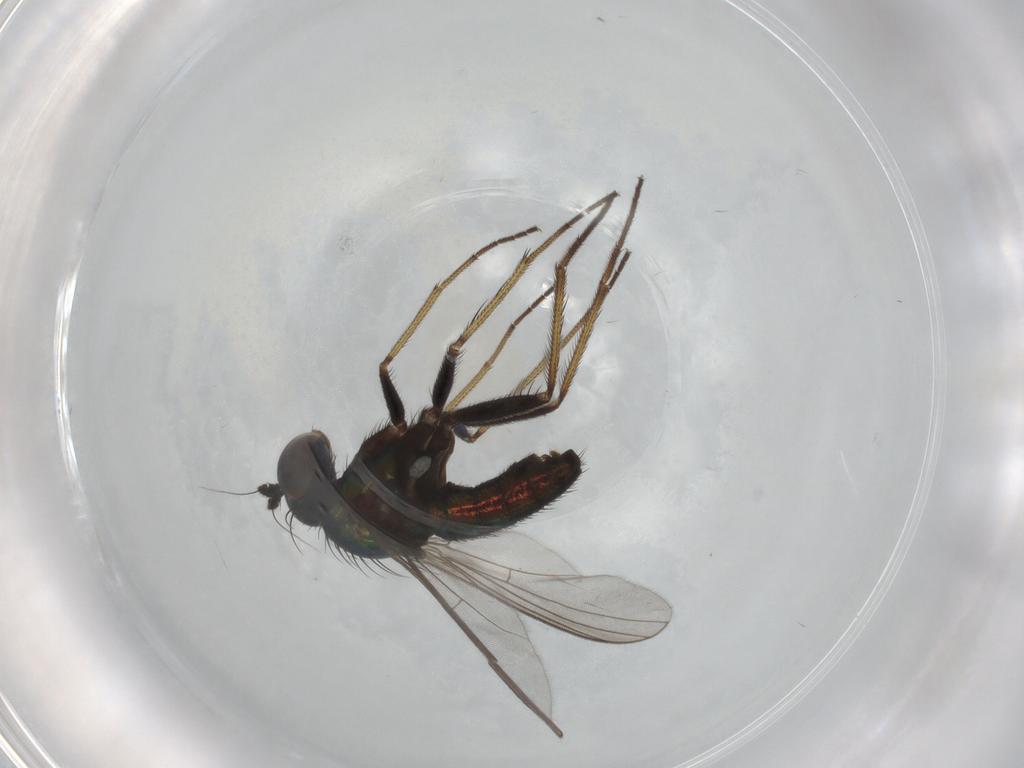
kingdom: Animalia
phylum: Arthropoda
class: Insecta
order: Diptera
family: Dolichopodidae
